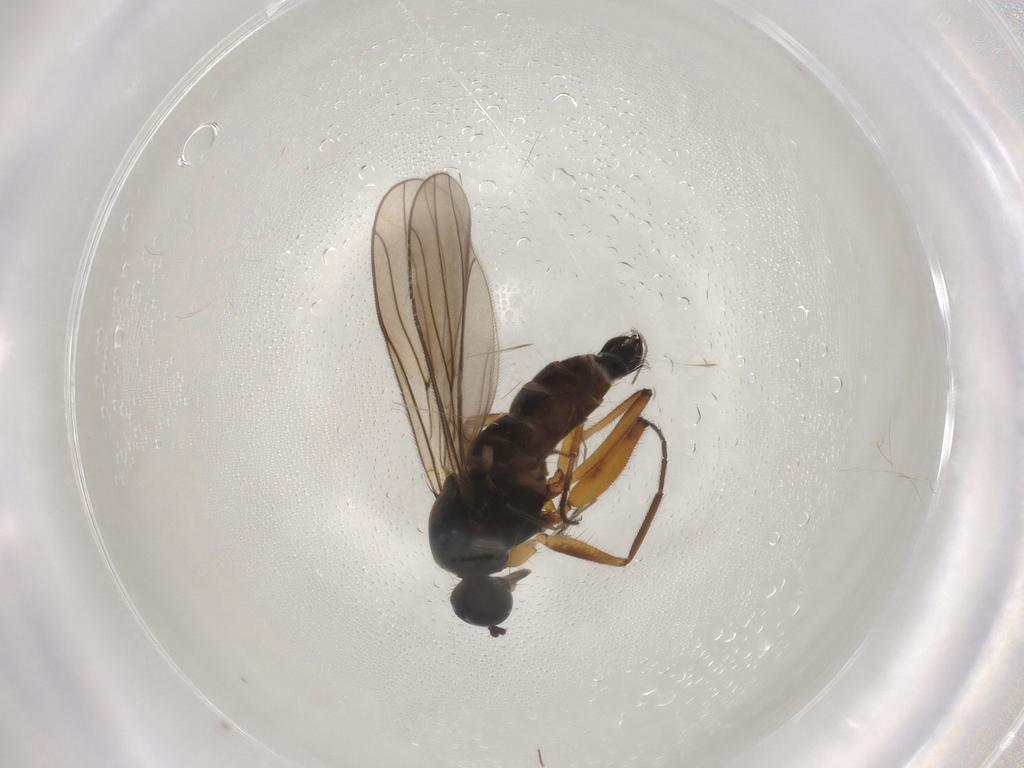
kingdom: Animalia
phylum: Arthropoda
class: Insecta
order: Diptera
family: Hybotidae
